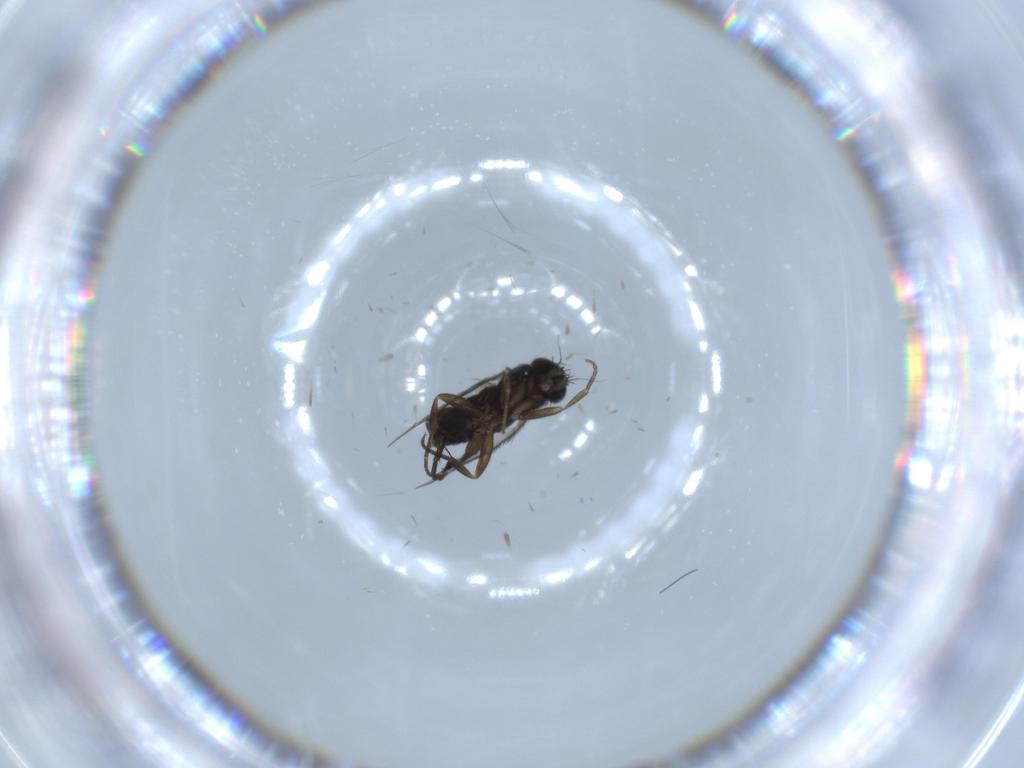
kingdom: Animalia
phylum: Arthropoda
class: Insecta
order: Diptera
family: Phoridae
